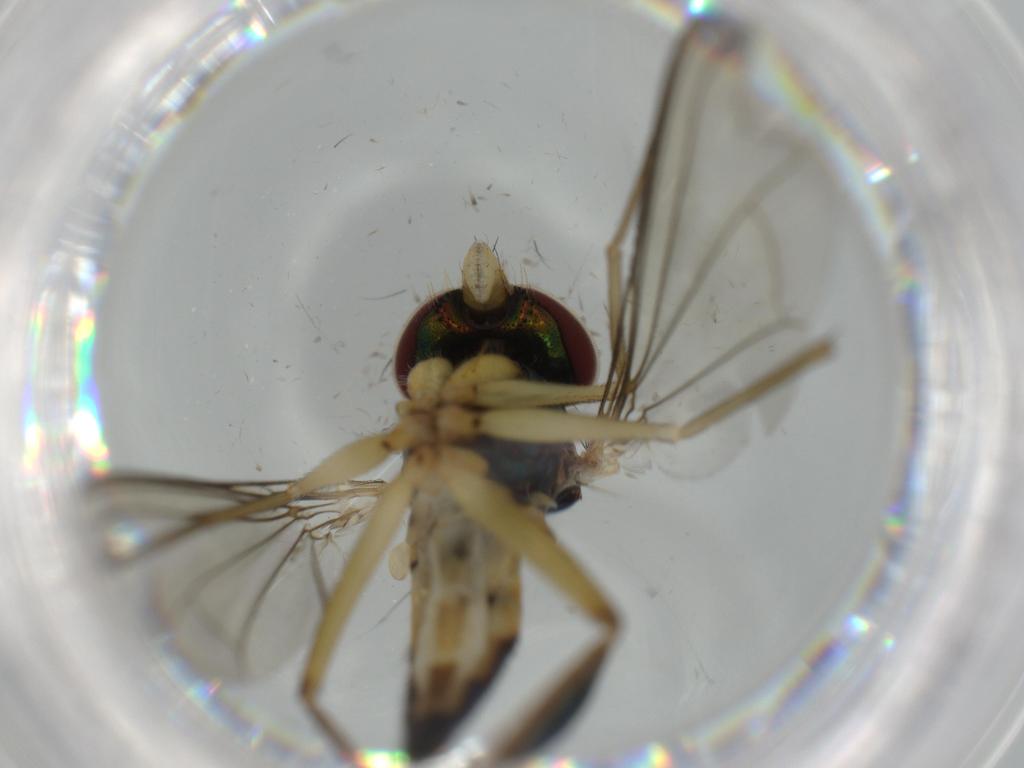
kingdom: Animalia
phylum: Arthropoda
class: Insecta
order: Diptera
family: Dolichopodidae
